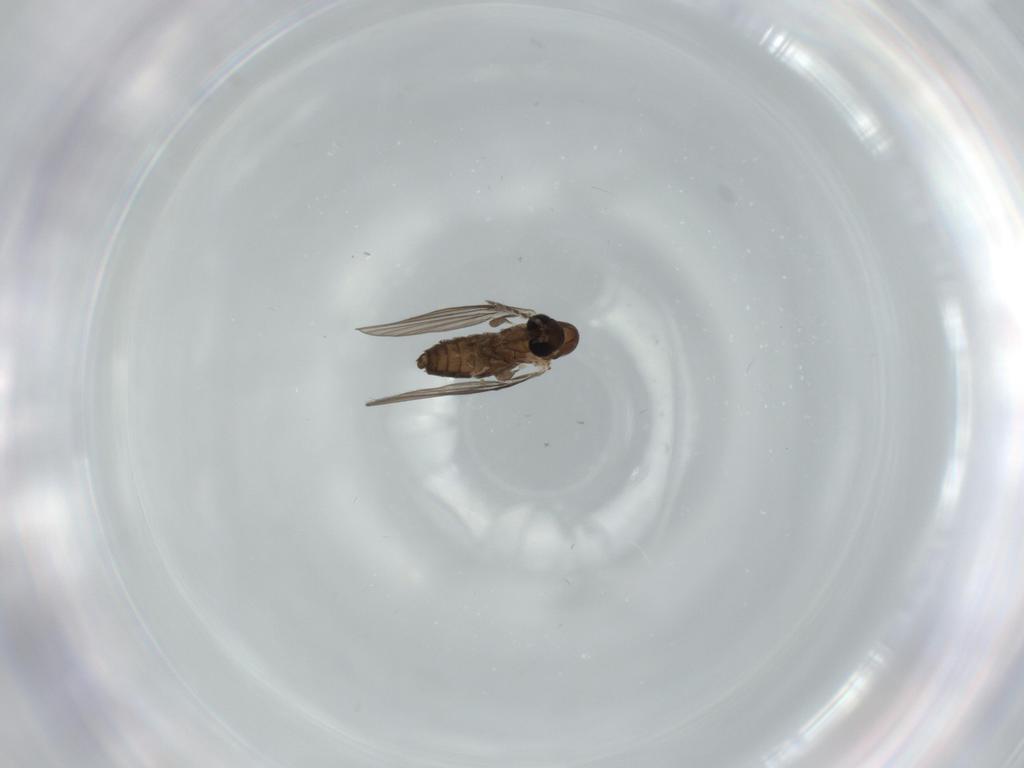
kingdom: Animalia
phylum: Arthropoda
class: Insecta
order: Diptera
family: Psychodidae
